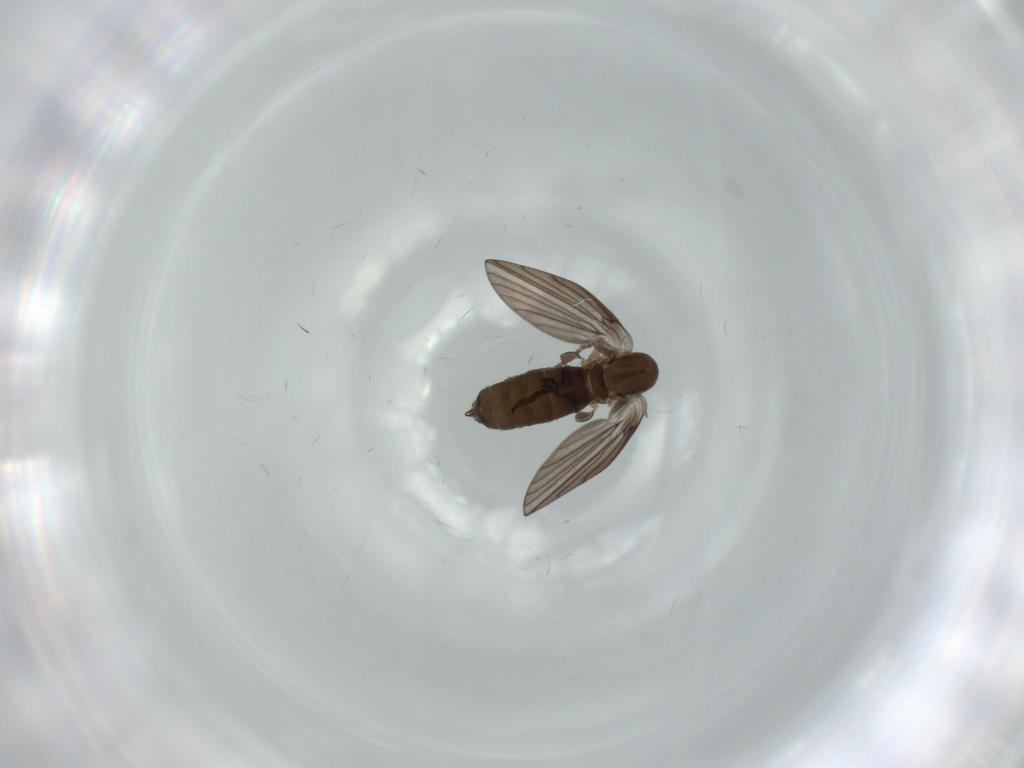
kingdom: Animalia
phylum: Arthropoda
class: Insecta
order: Diptera
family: Psychodidae
